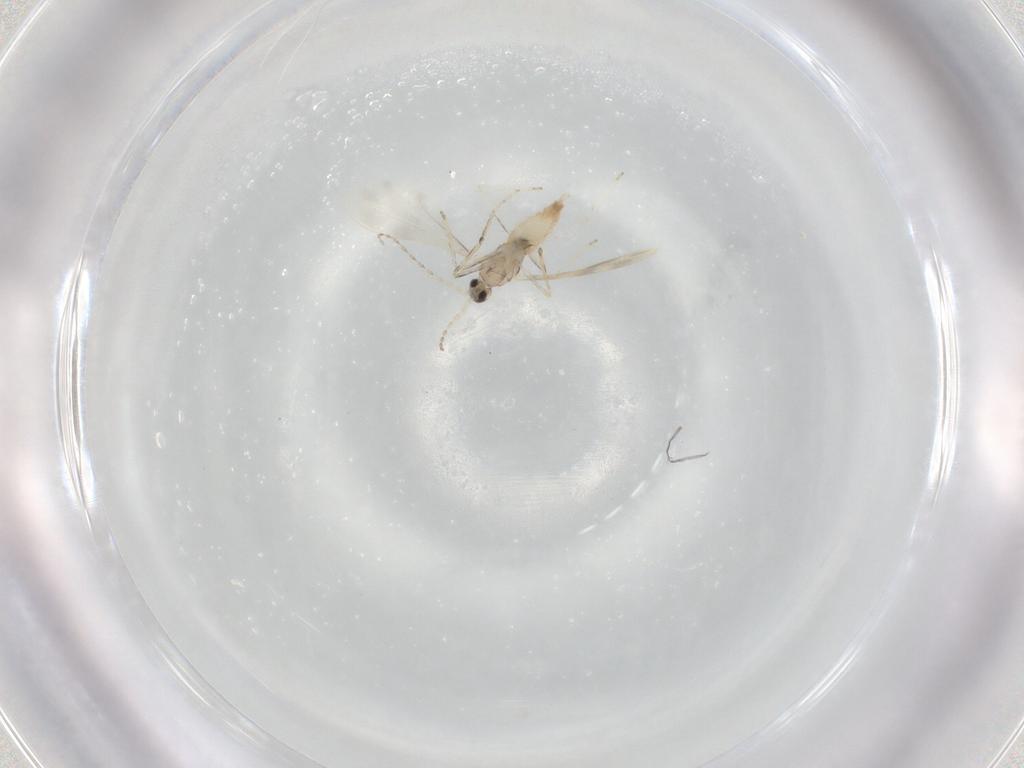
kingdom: Animalia
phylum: Arthropoda
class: Insecta
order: Diptera
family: Cecidomyiidae
